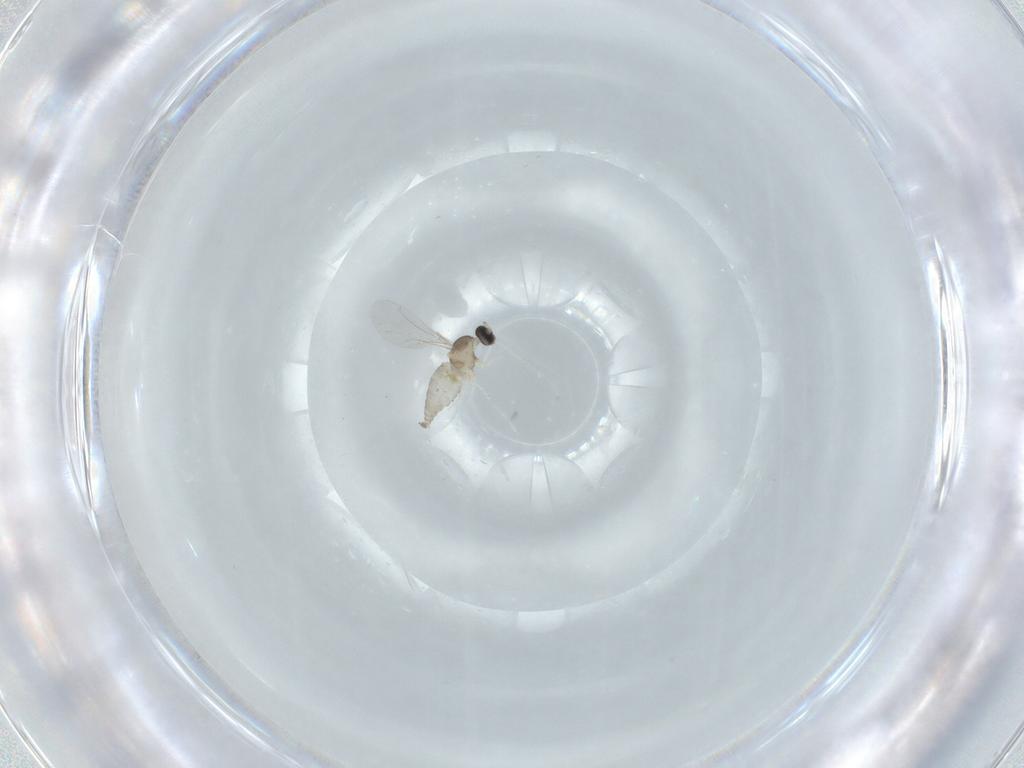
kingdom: Animalia
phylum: Arthropoda
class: Insecta
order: Diptera
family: Cecidomyiidae
